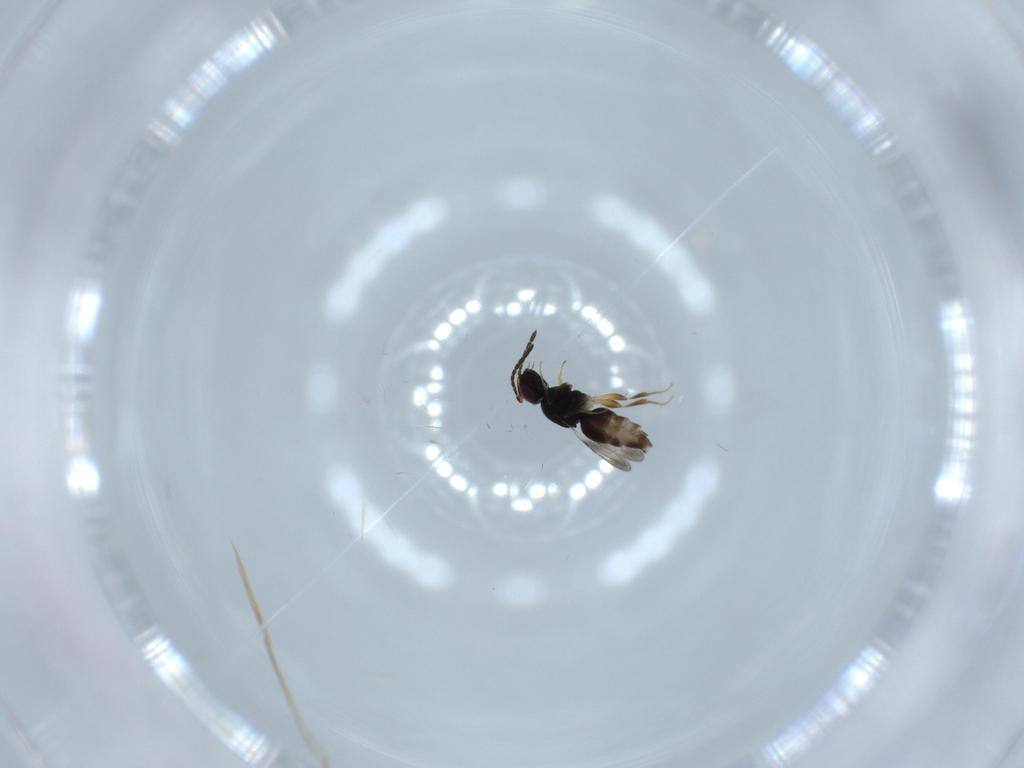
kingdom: Animalia
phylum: Arthropoda
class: Insecta
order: Hymenoptera
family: Ceraphronidae
